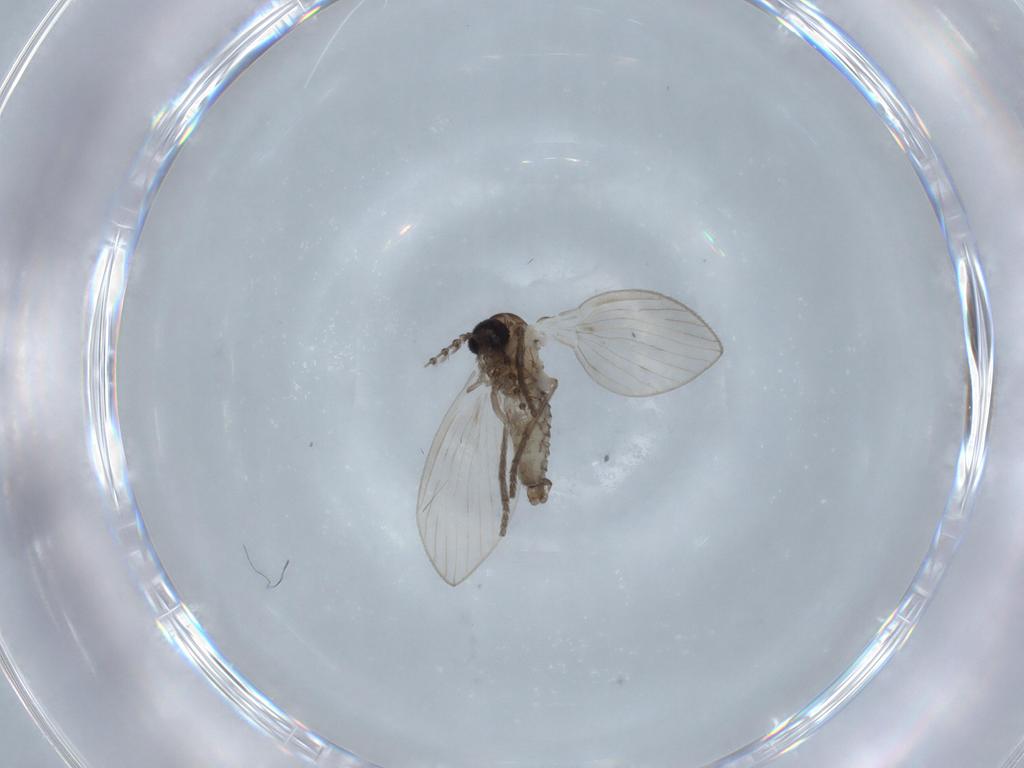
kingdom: Animalia
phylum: Arthropoda
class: Insecta
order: Diptera
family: Psychodidae
